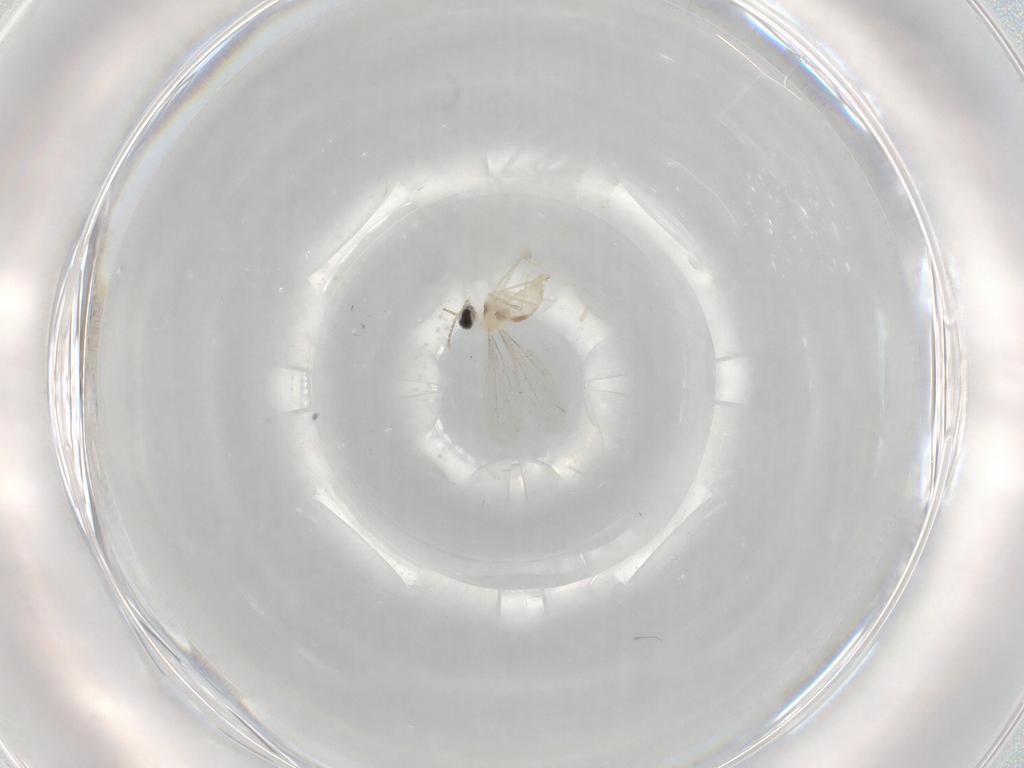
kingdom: Animalia
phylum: Arthropoda
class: Insecta
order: Diptera
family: Cecidomyiidae
